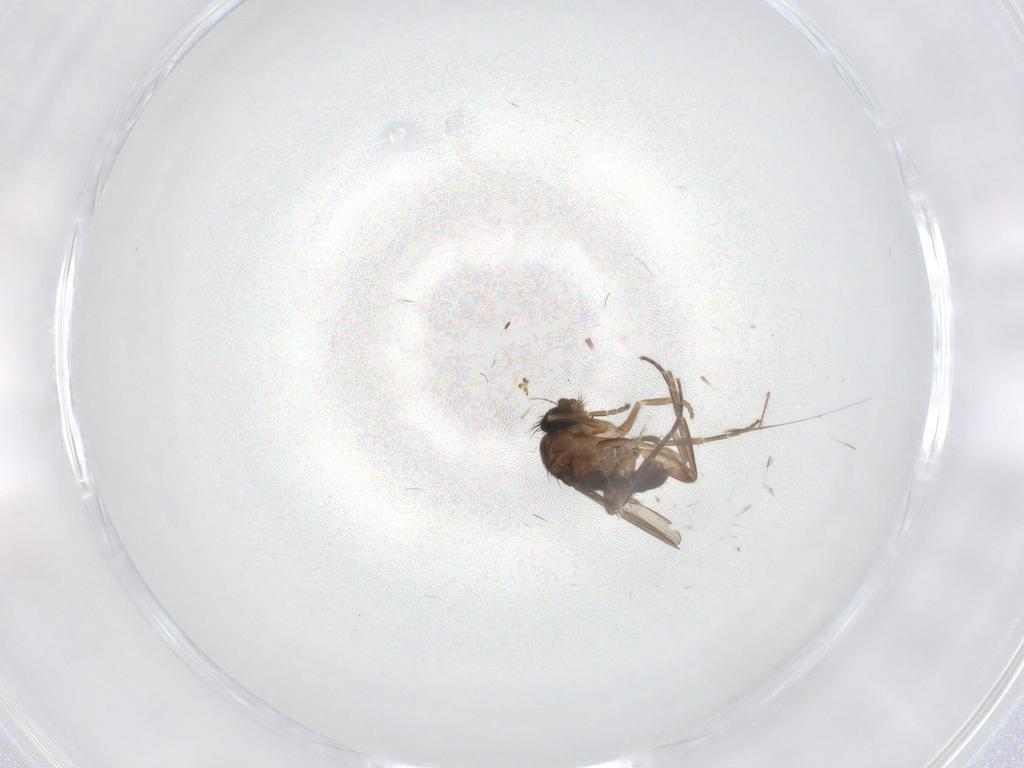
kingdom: Animalia
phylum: Arthropoda
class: Insecta
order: Diptera
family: Phoridae
